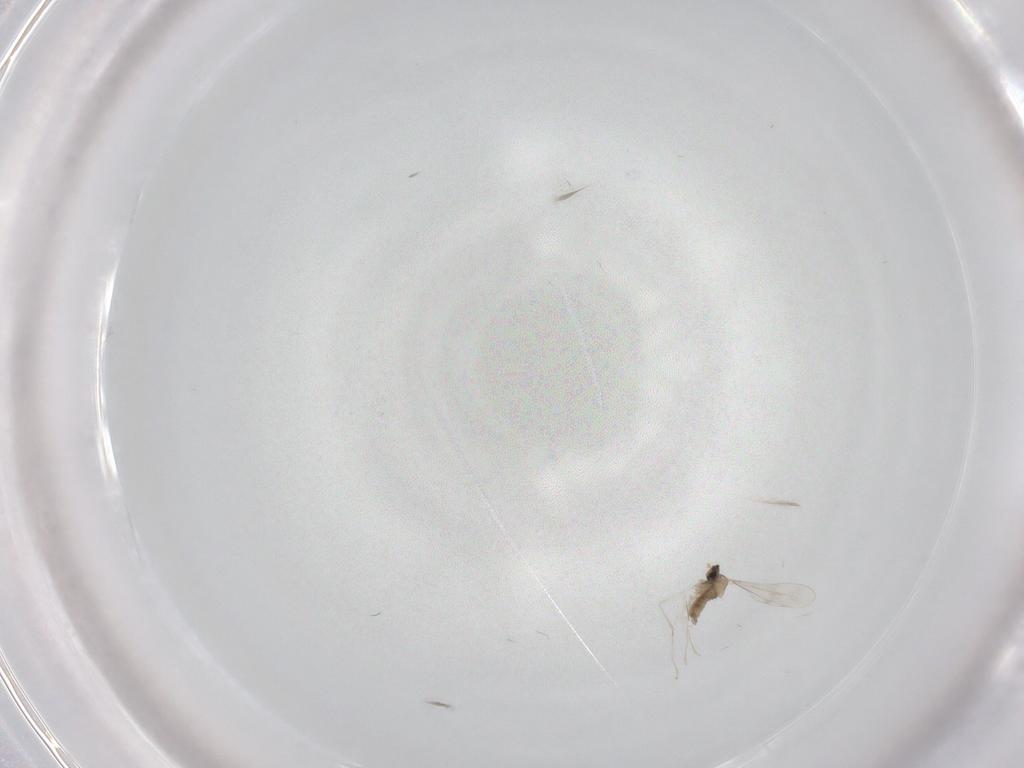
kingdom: Animalia
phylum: Arthropoda
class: Insecta
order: Diptera
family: Cecidomyiidae
